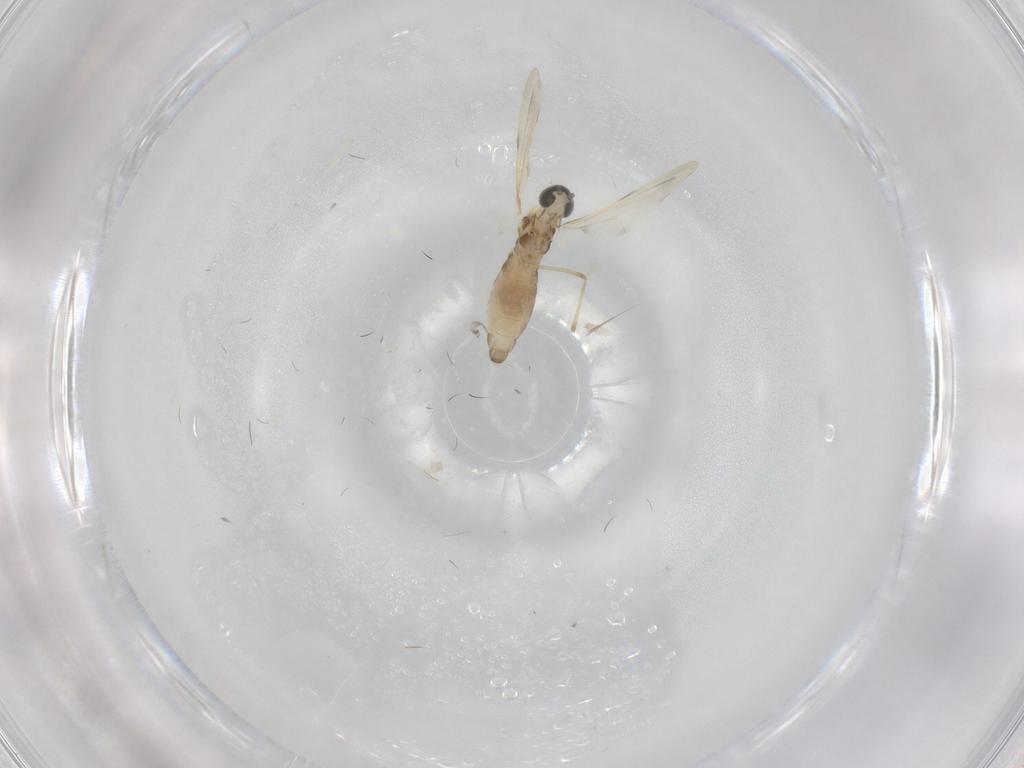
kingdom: Animalia
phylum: Arthropoda
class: Insecta
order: Diptera
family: Cecidomyiidae
